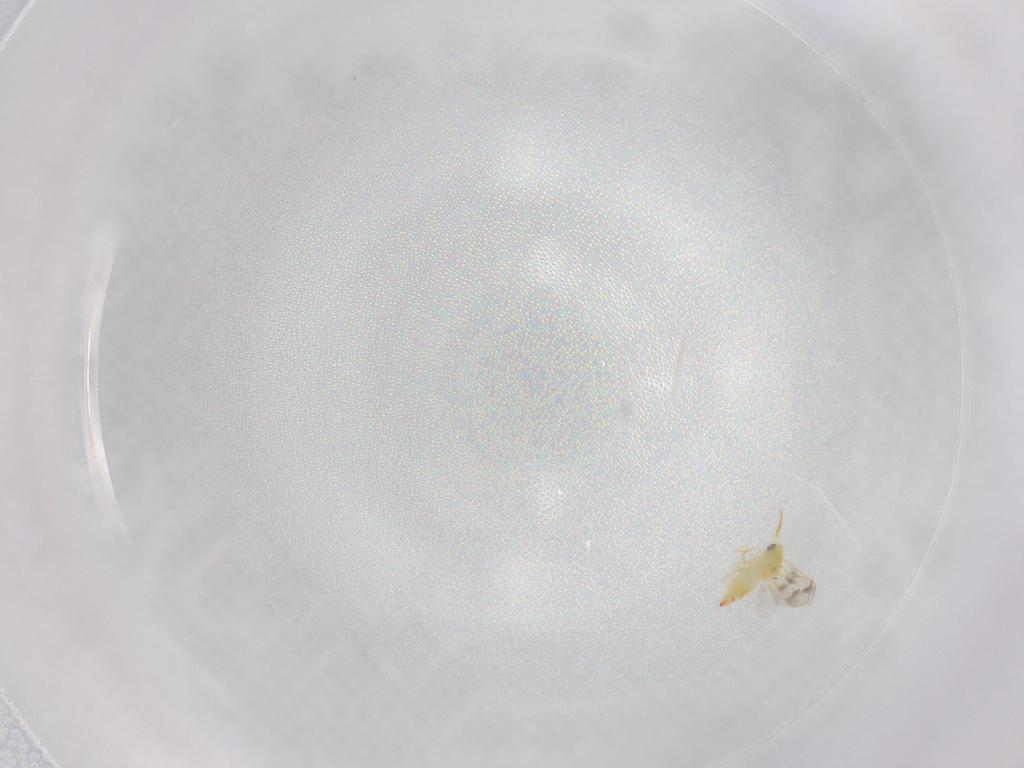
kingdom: Animalia
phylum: Arthropoda
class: Insecta
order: Hemiptera
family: Aleyrodidae
